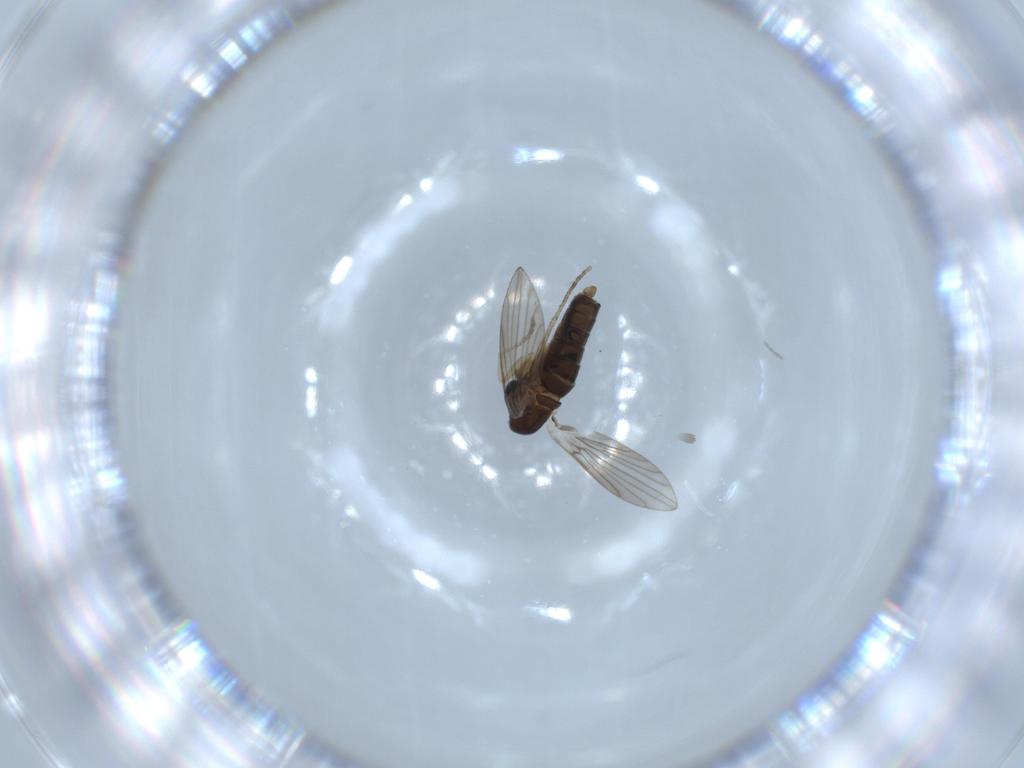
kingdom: Animalia
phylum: Arthropoda
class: Insecta
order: Diptera
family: Psychodidae
